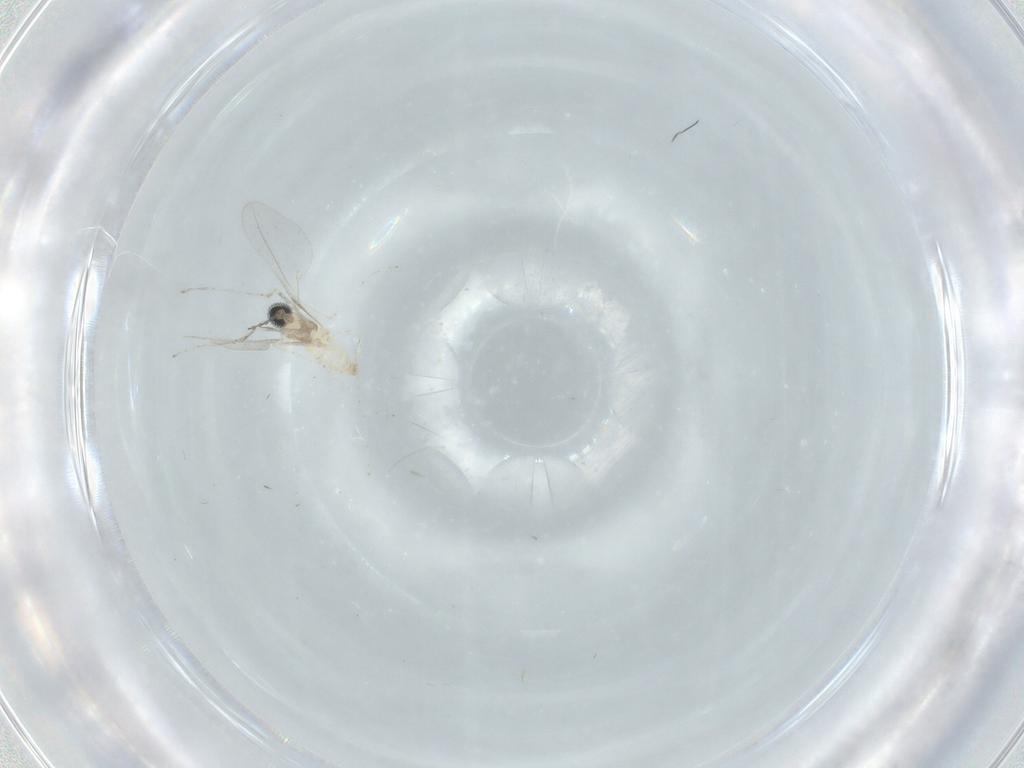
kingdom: Animalia
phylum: Arthropoda
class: Insecta
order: Diptera
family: Cecidomyiidae
